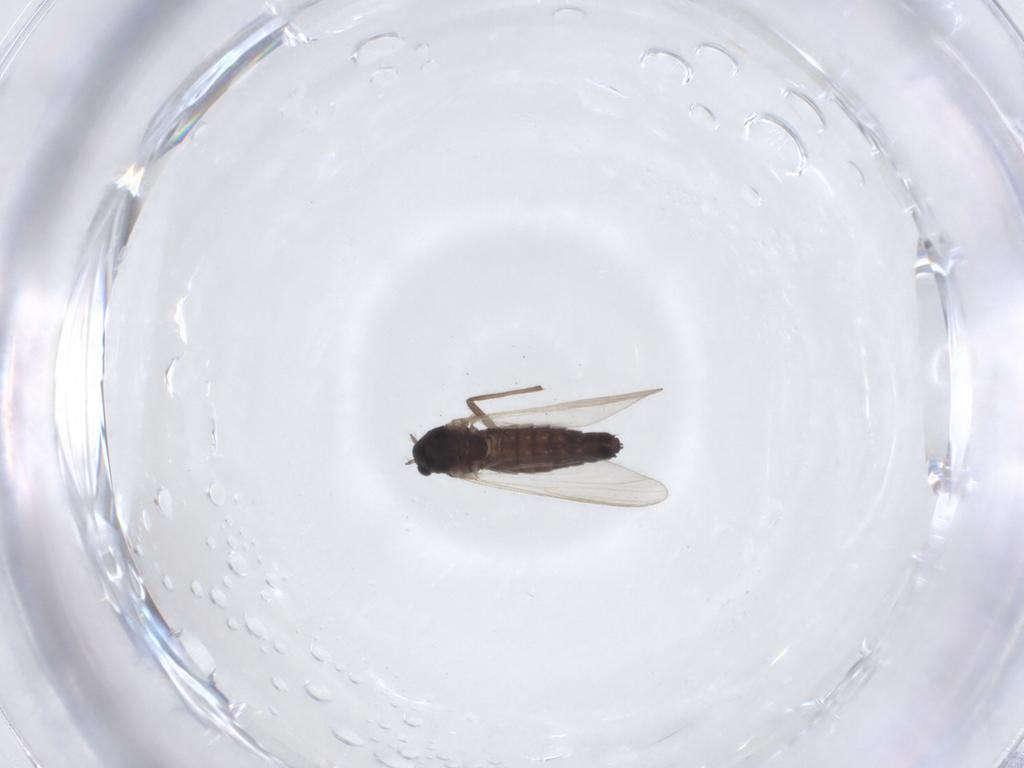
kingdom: Animalia
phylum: Arthropoda
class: Insecta
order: Diptera
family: Chironomidae
